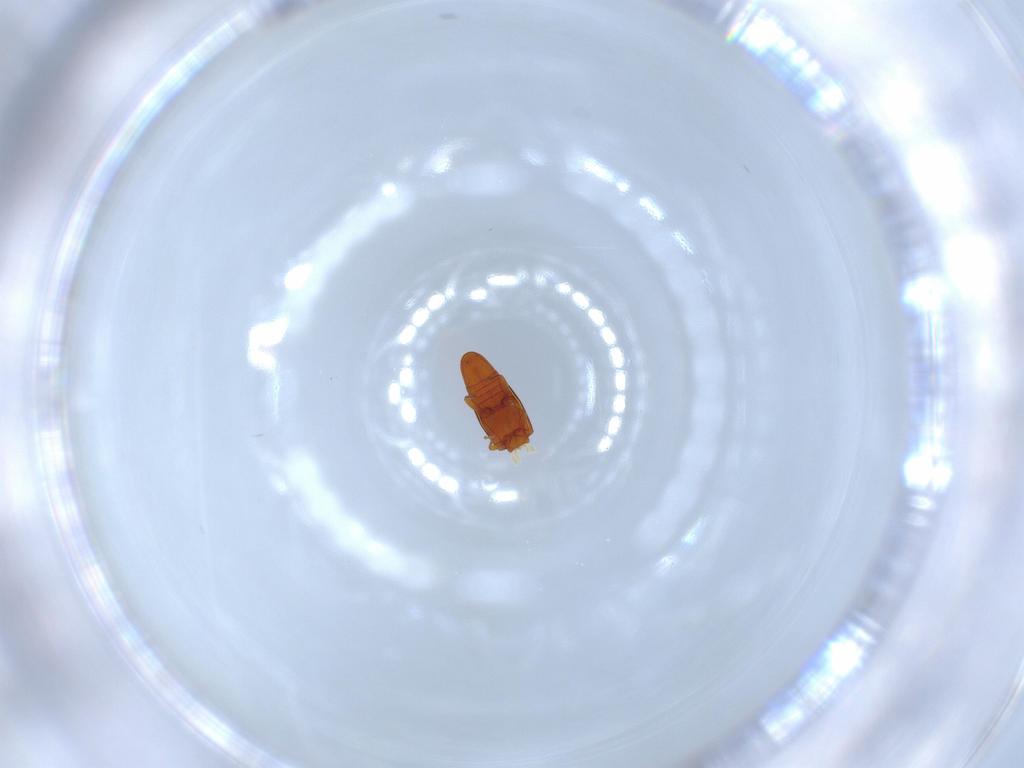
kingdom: Animalia
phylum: Arthropoda
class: Insecta
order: Coleoptera
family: Smicripidae
